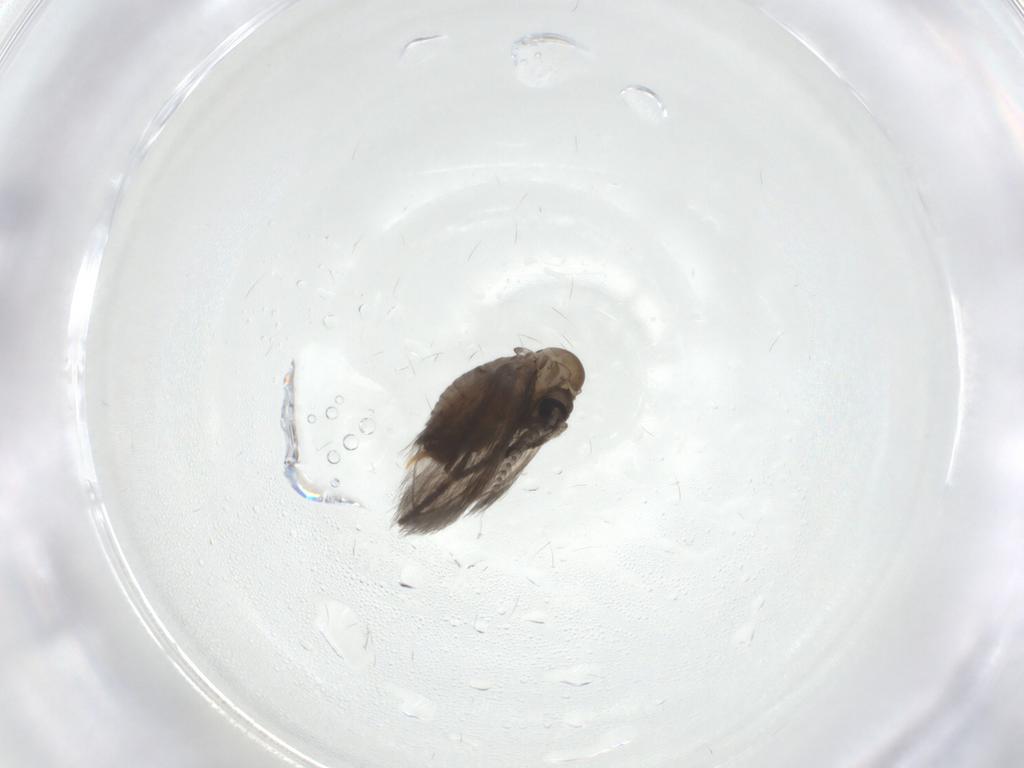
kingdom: Animalia
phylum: Arthropoda
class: Insecta
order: Diptera
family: Psychodidae
